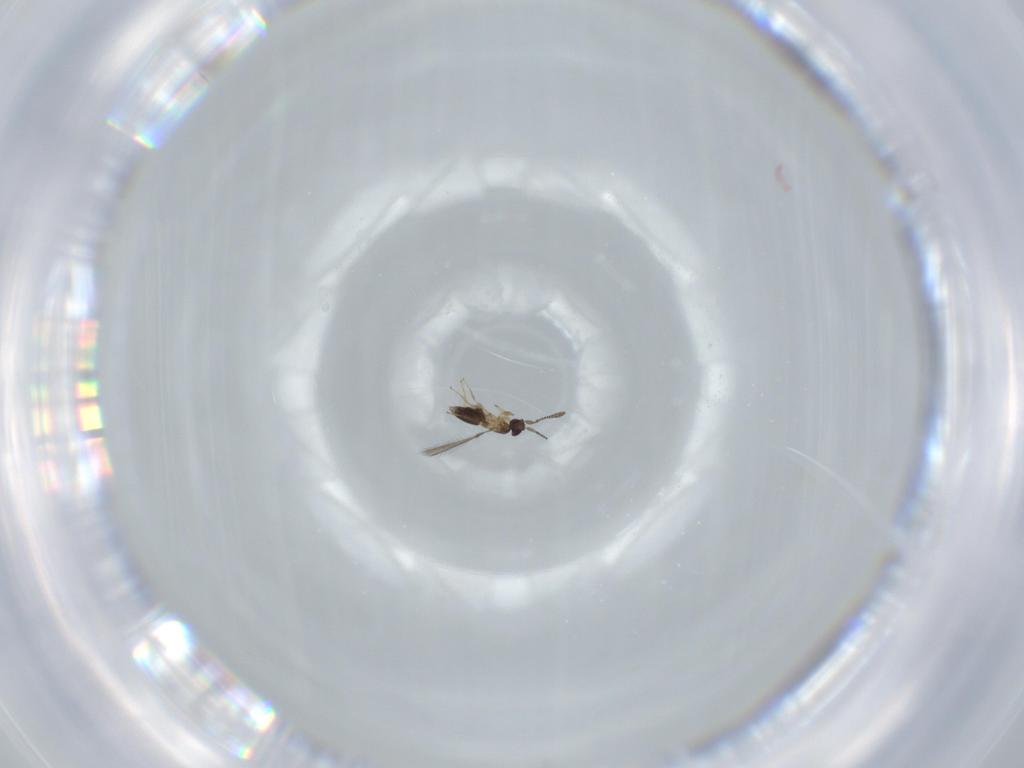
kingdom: Animalia
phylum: Arthropoda
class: Insecta
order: Hymenoptera
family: Mymaridae
